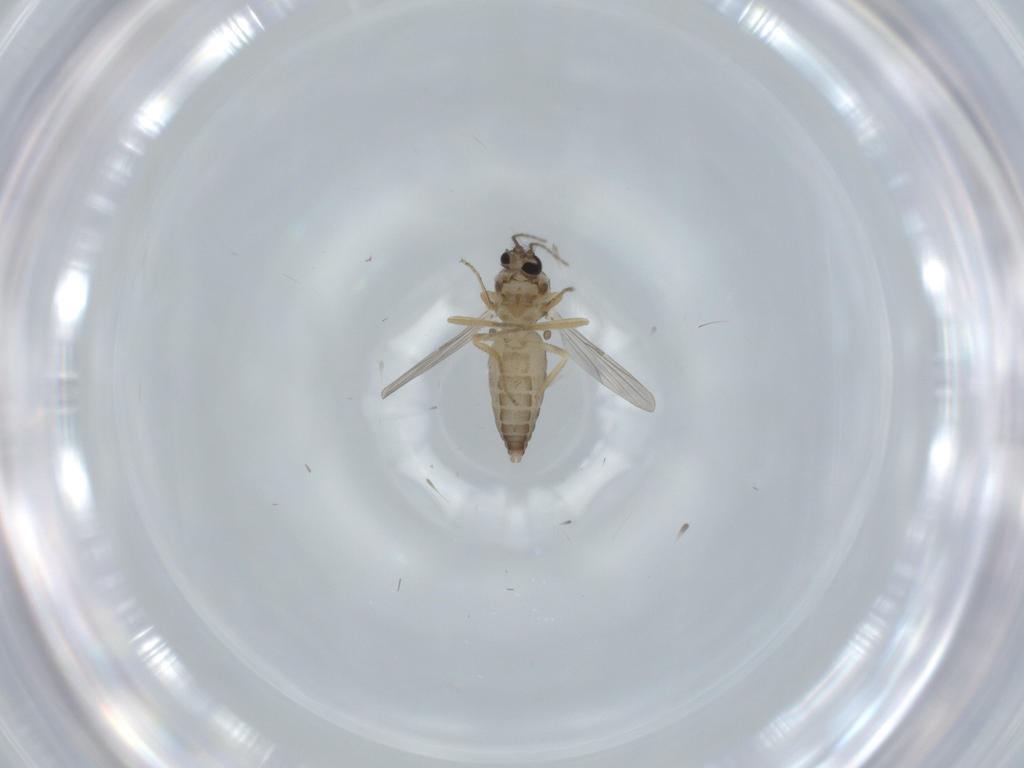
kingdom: Animalia
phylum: Arthropoda
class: Insecta
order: Diptera
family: Ceratopogonidae
